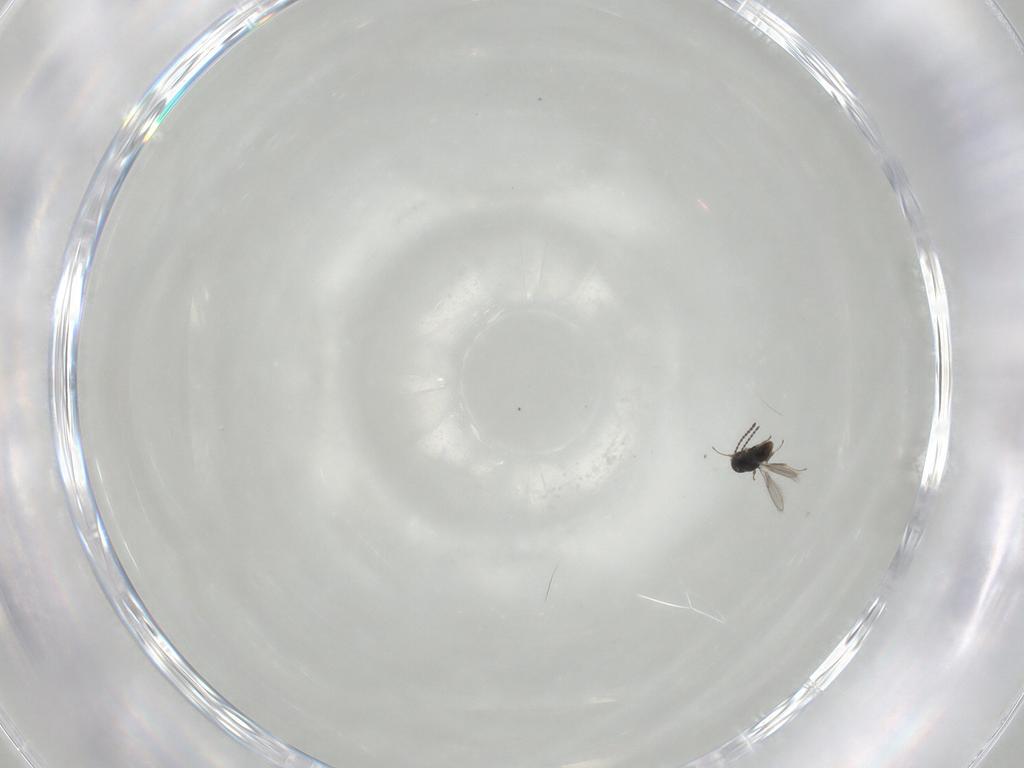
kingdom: Animalia
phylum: Arthropoda
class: Insecta
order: Hymenoptera
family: Scelionidae
